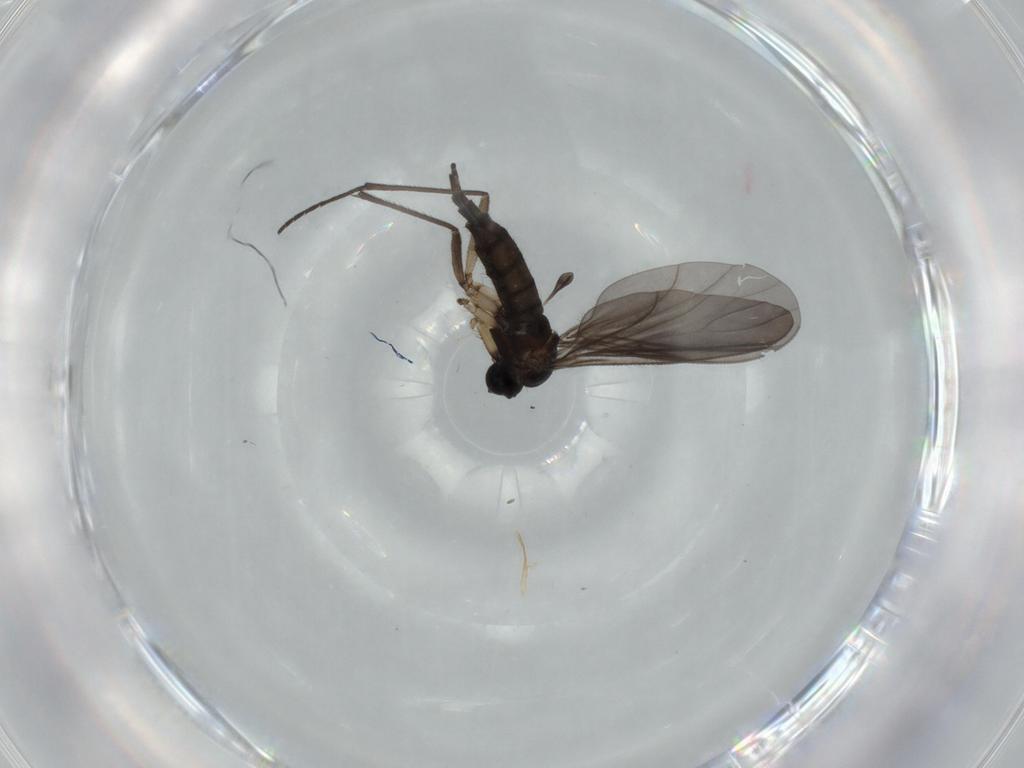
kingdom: Animalia
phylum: Arthropoda
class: Insecta
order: Diptera
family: Sciaridae
